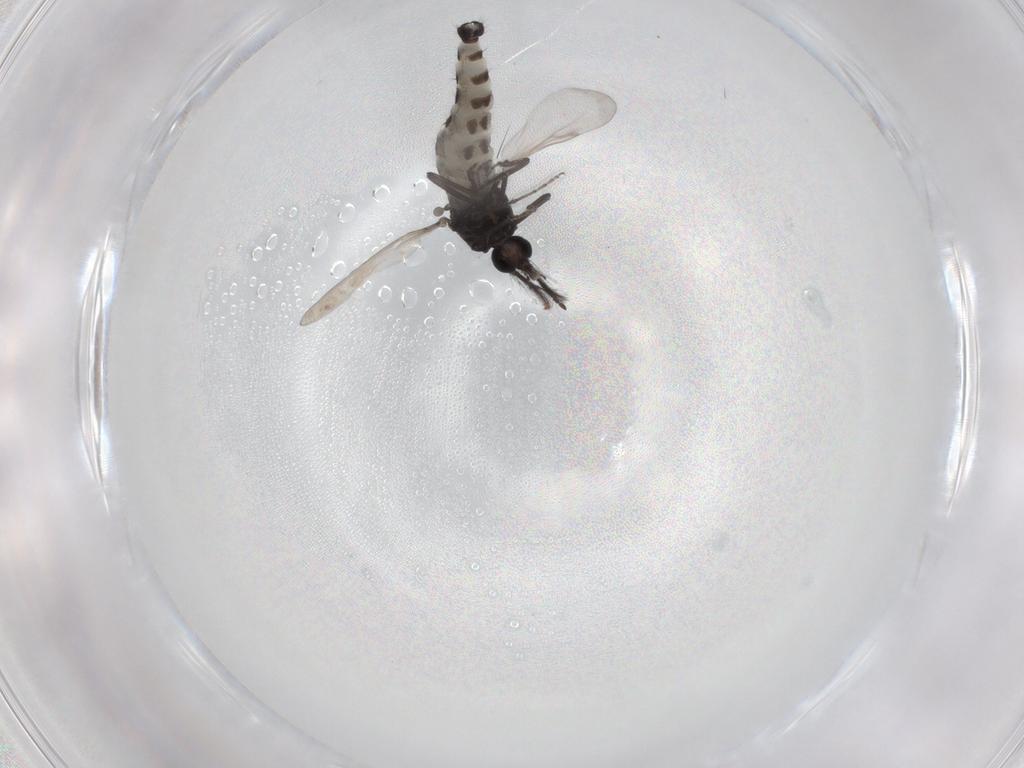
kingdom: Animalia
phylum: Arthropoda
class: Insecta
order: Diptera
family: Ceratopogonidae
